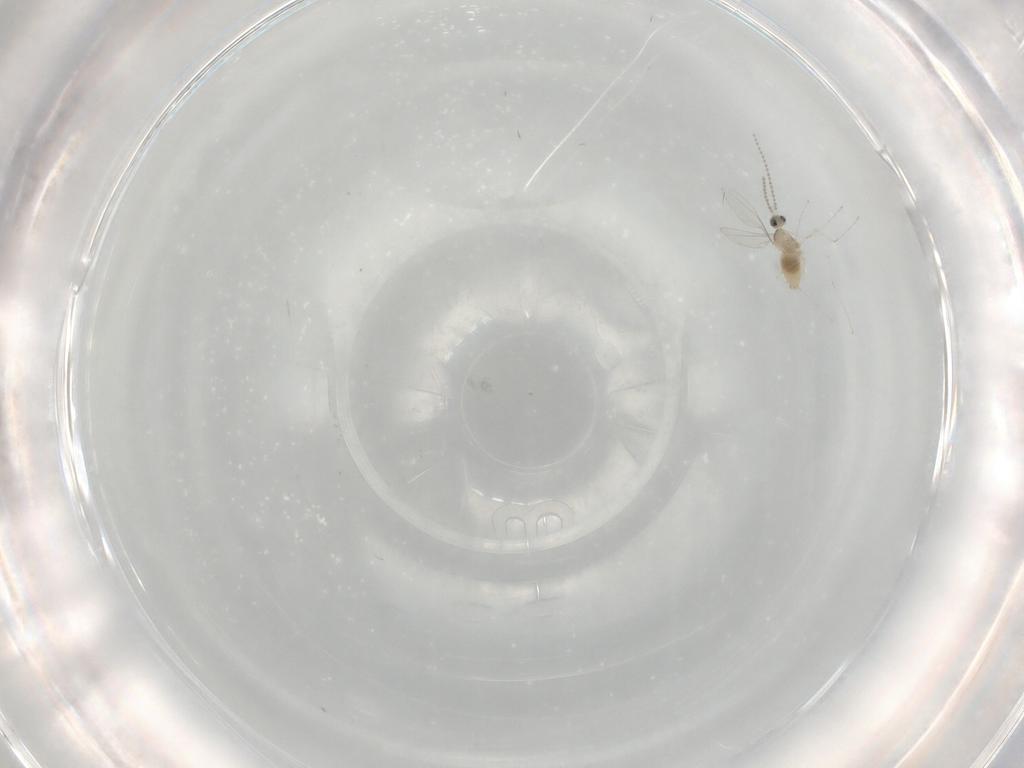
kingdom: Animalia
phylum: Arthropoda
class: Insecta
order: Diptera
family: Cecidomyiidae
